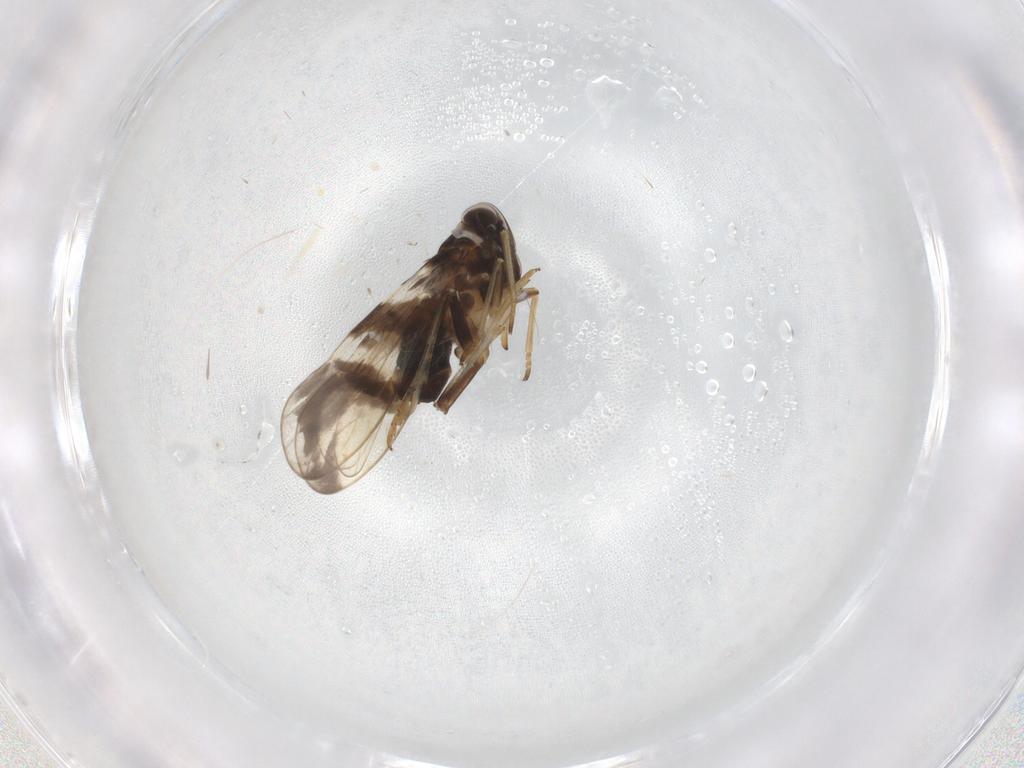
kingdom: Animalia
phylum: Arthropoda
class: Insecta
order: Hemiptera
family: Delphacidae
